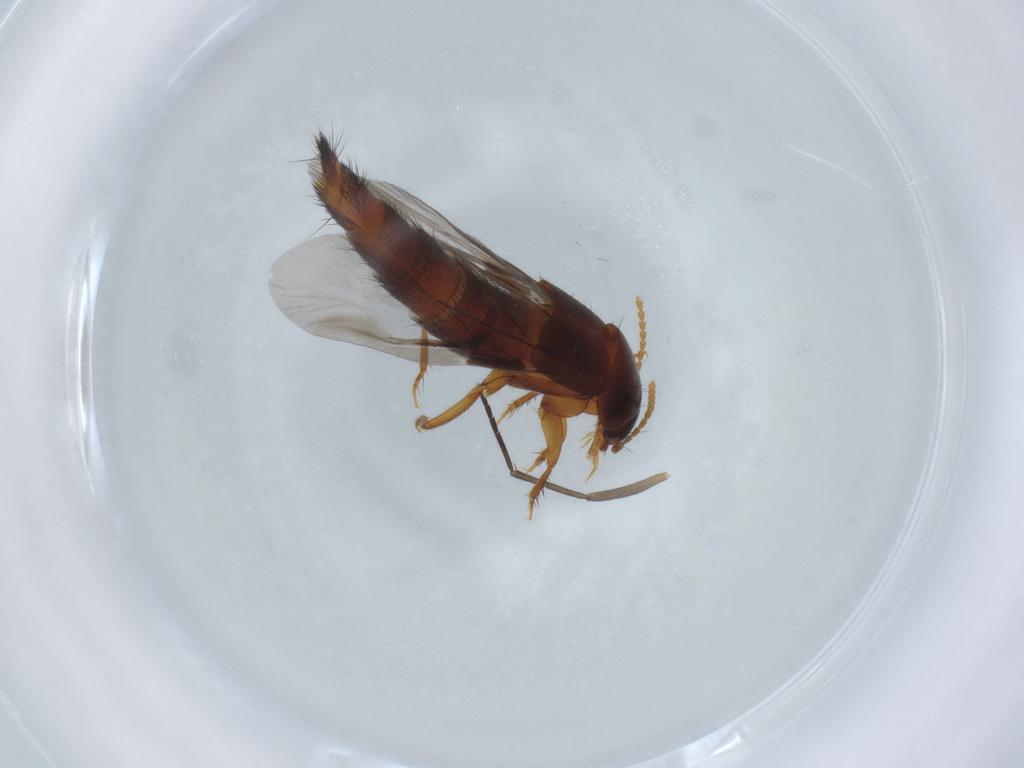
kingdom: Animalia
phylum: Arthropoda
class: Insecta
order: Coleoptera
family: Staphylinidae
